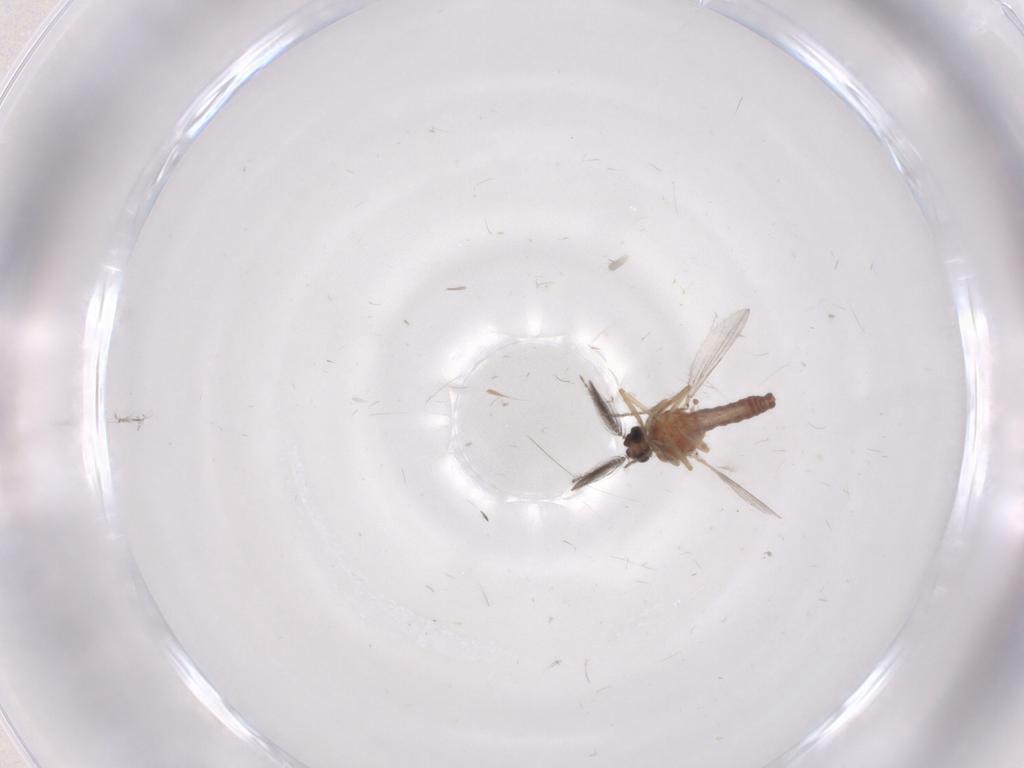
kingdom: Animalia
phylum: Arthropoda
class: Insecta
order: Diptera
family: Ceratopogonidae
